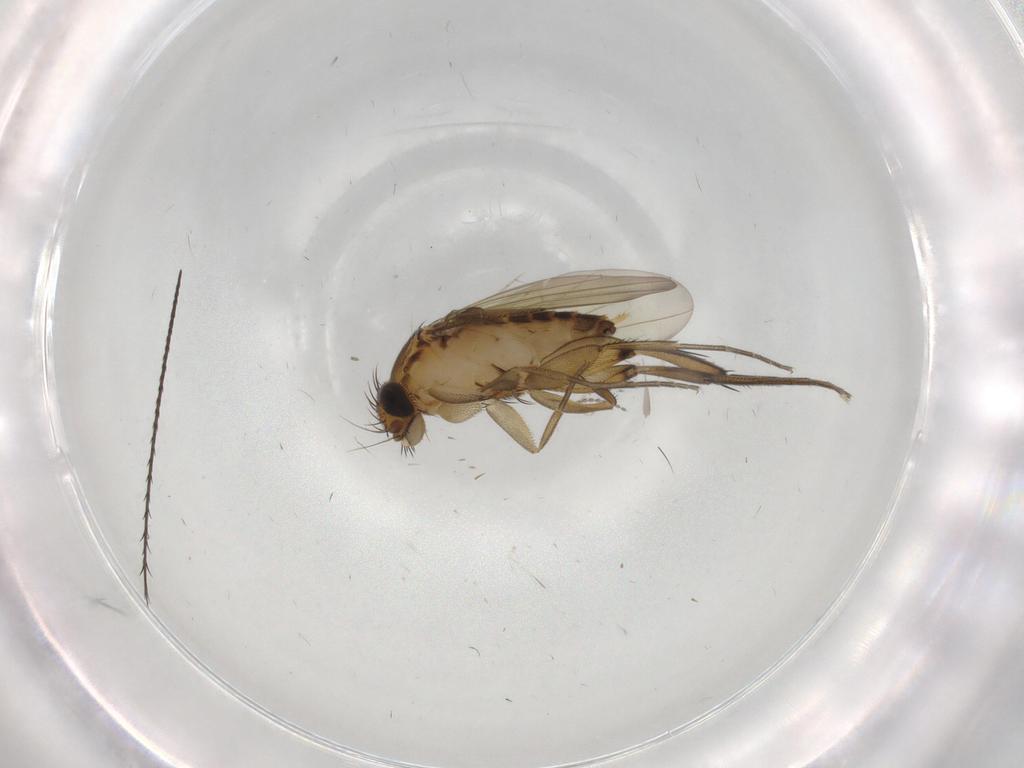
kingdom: Animalia
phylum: Arthropoda
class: Insecta
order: Diptera
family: Phoridae
